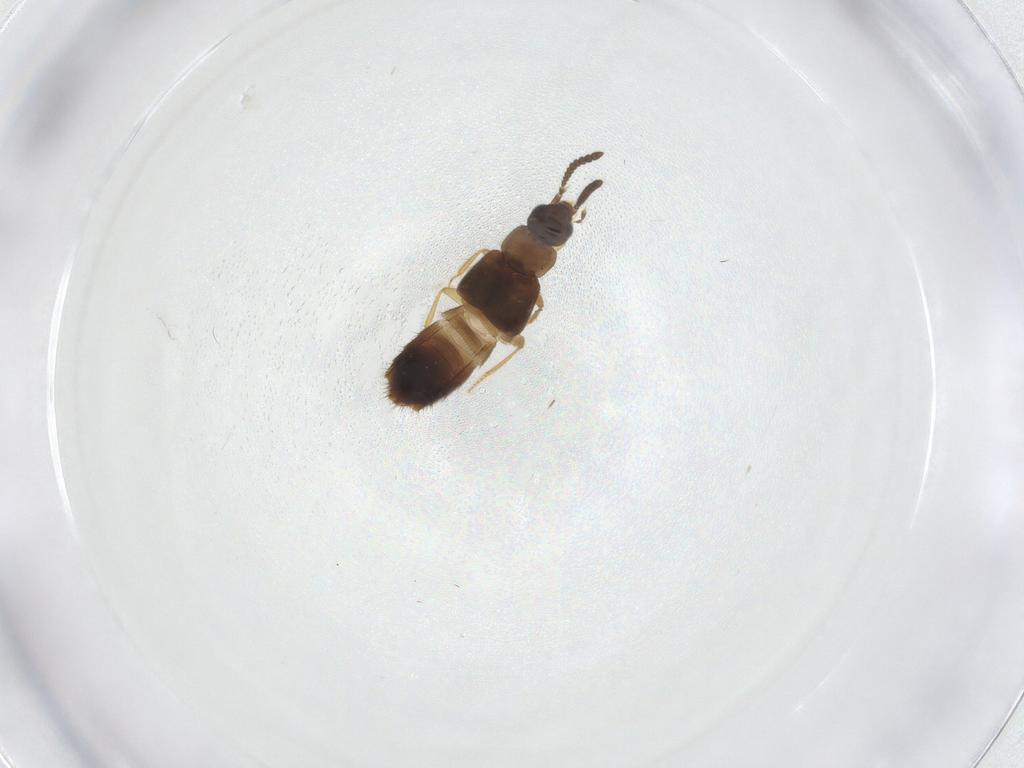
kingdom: Animalia
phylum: Arthropoda
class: Insecta
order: Coleoptera
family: Staphylinidae
